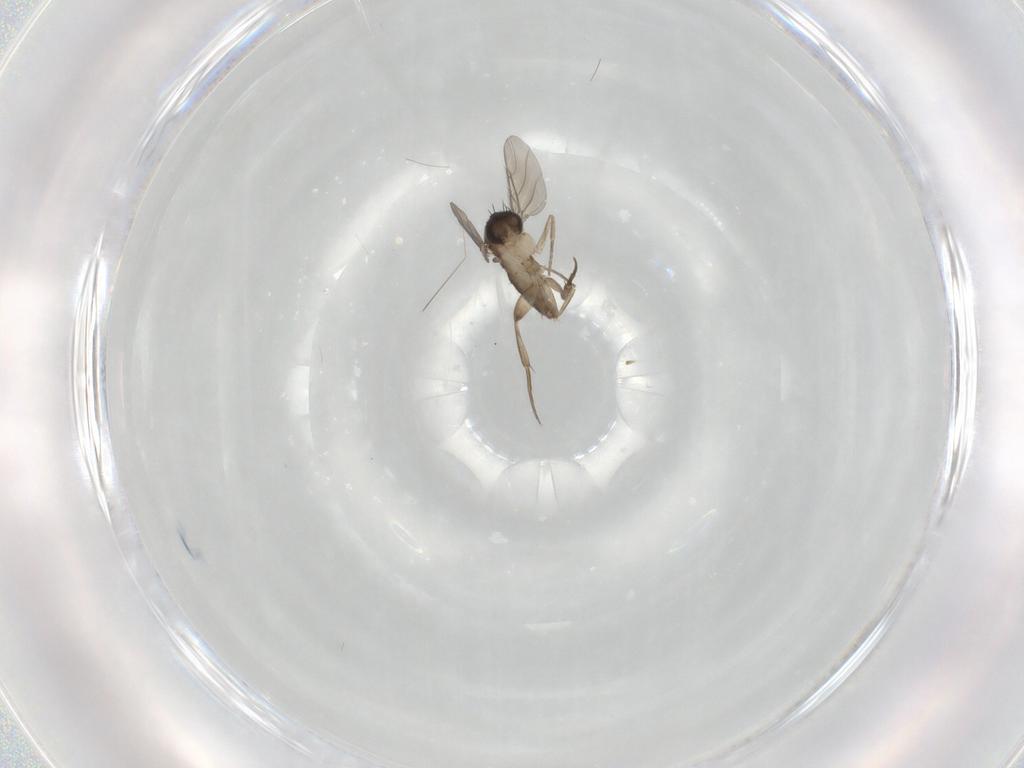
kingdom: Animalia
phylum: Arthropoda
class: Insecta
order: Diptera
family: Phoridae
